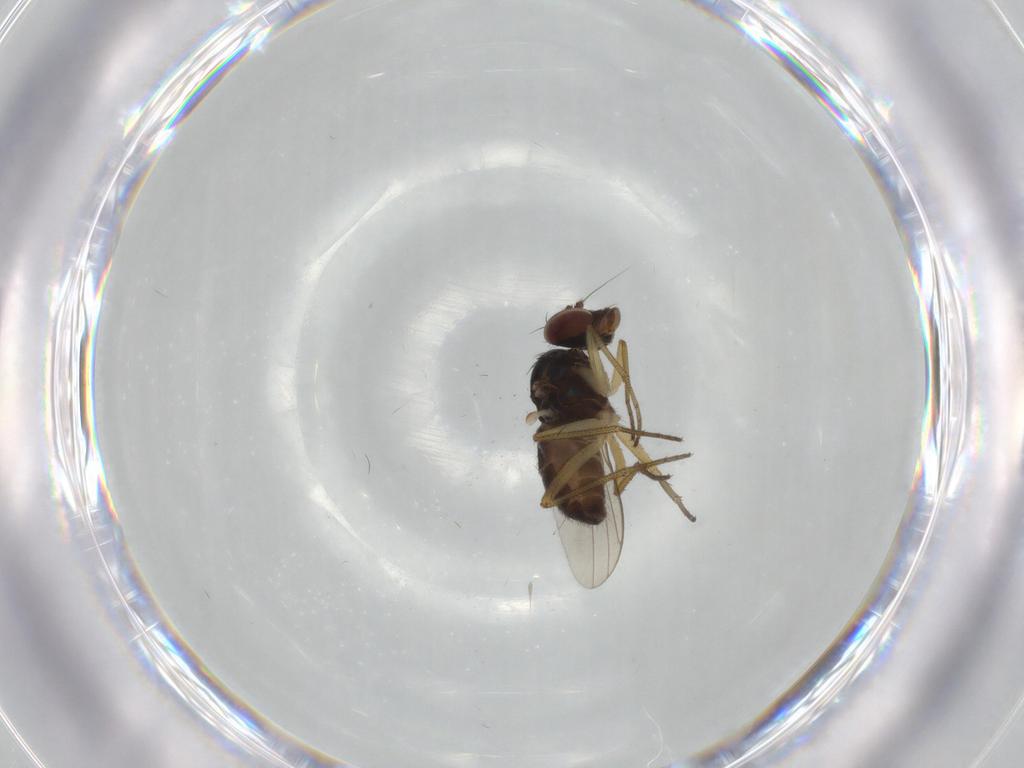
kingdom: Animalia
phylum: Arthropoda
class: Insecta
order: Diptera
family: Dolichopodidae
